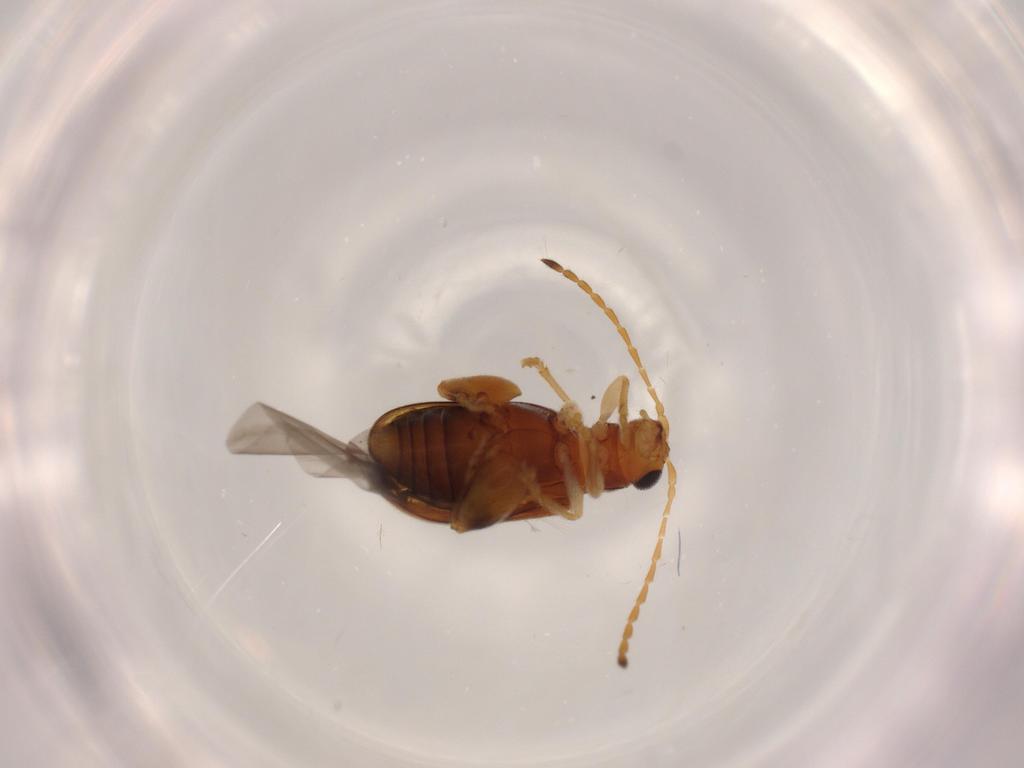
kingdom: Animalia
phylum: Arthropoda
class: Insecta
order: Coleoptera
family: Chrysomelidae
